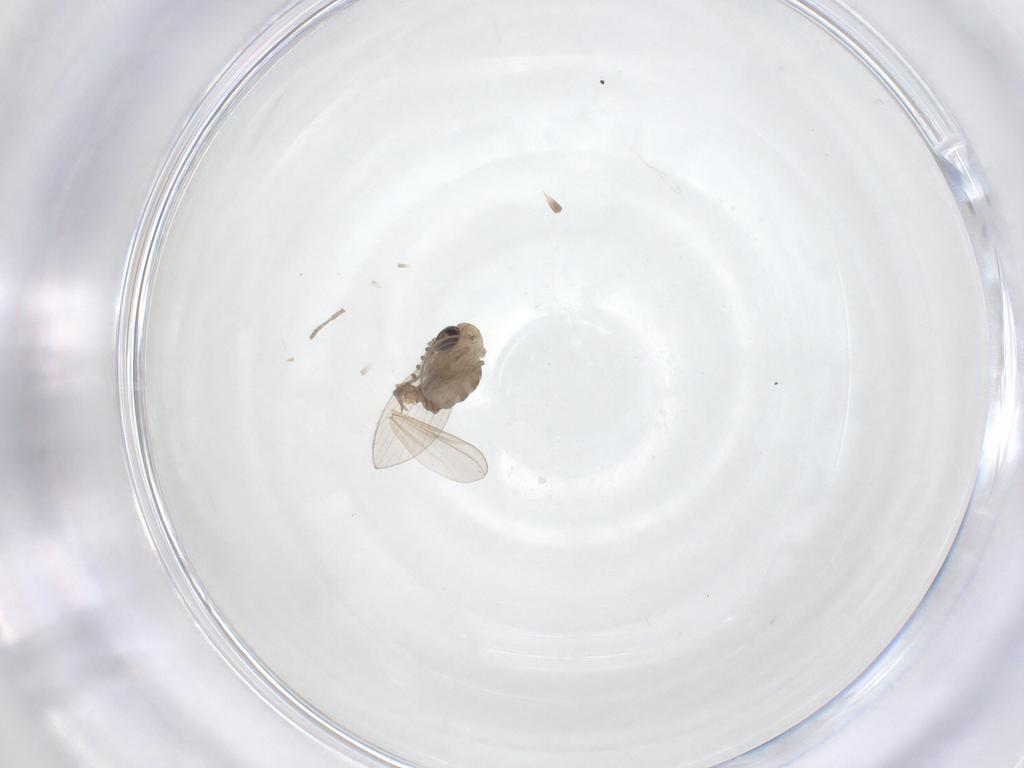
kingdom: Animalia
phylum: Arthropoda
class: Insecta
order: Diptera
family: Psychodidae
